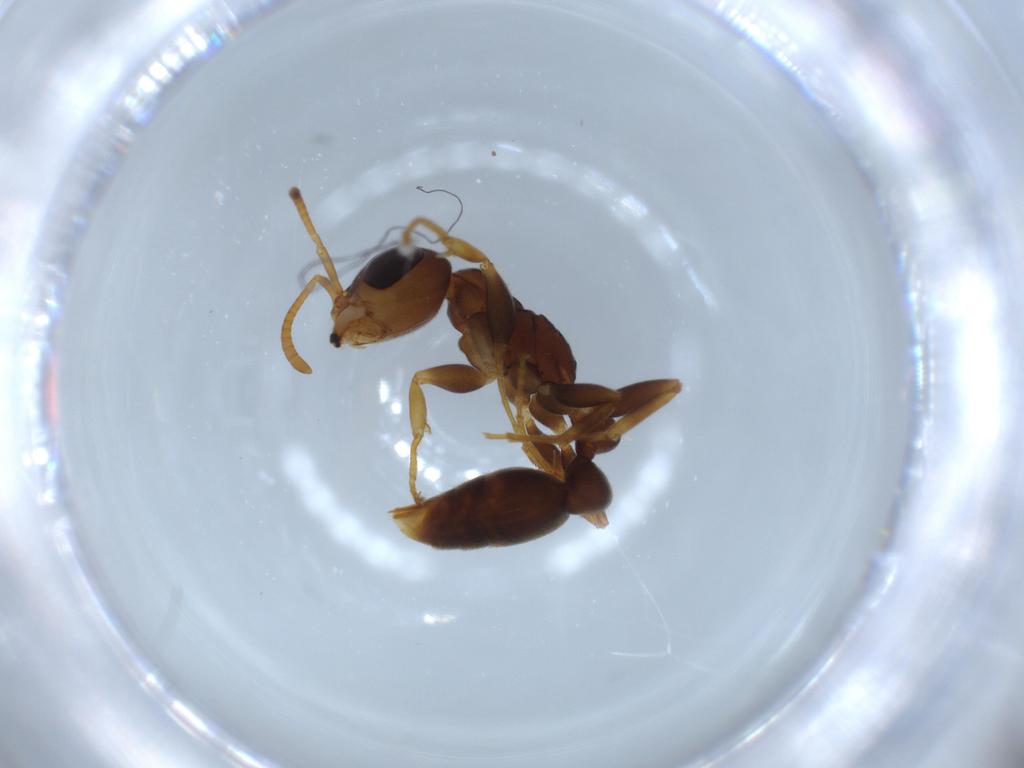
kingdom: Animalia
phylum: Arthropoda
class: Insecta
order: Hymenoptera
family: Formicidae
